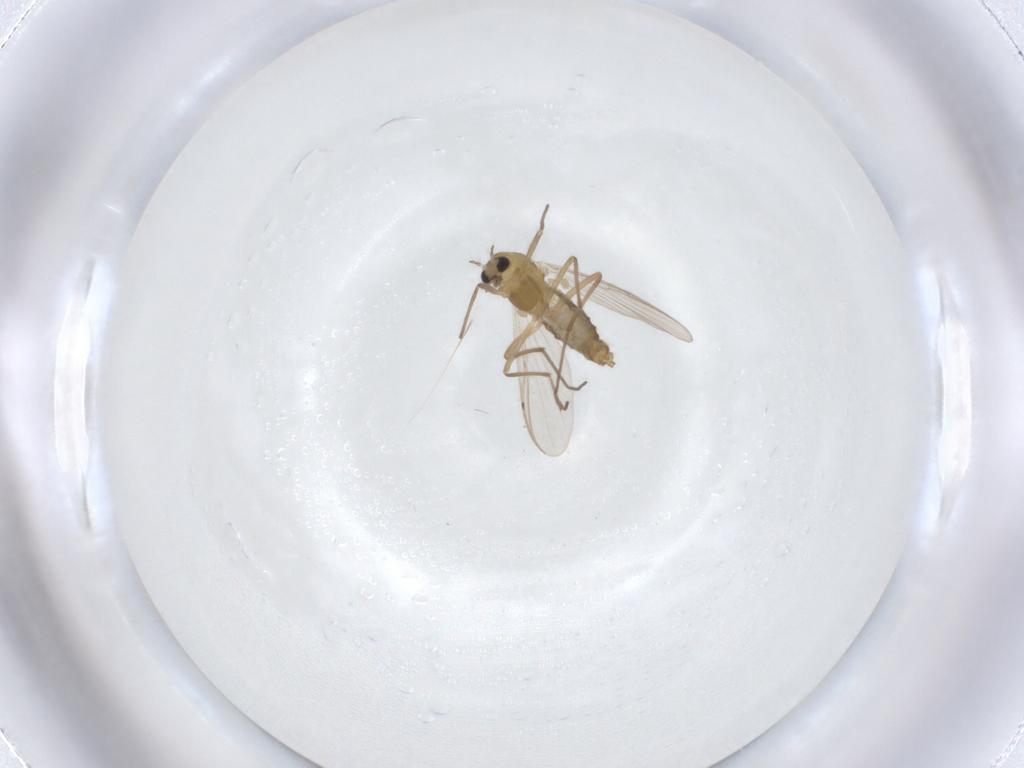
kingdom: Animalia
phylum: Arthropoda
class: Insecta
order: Diptera
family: Chironomidae
